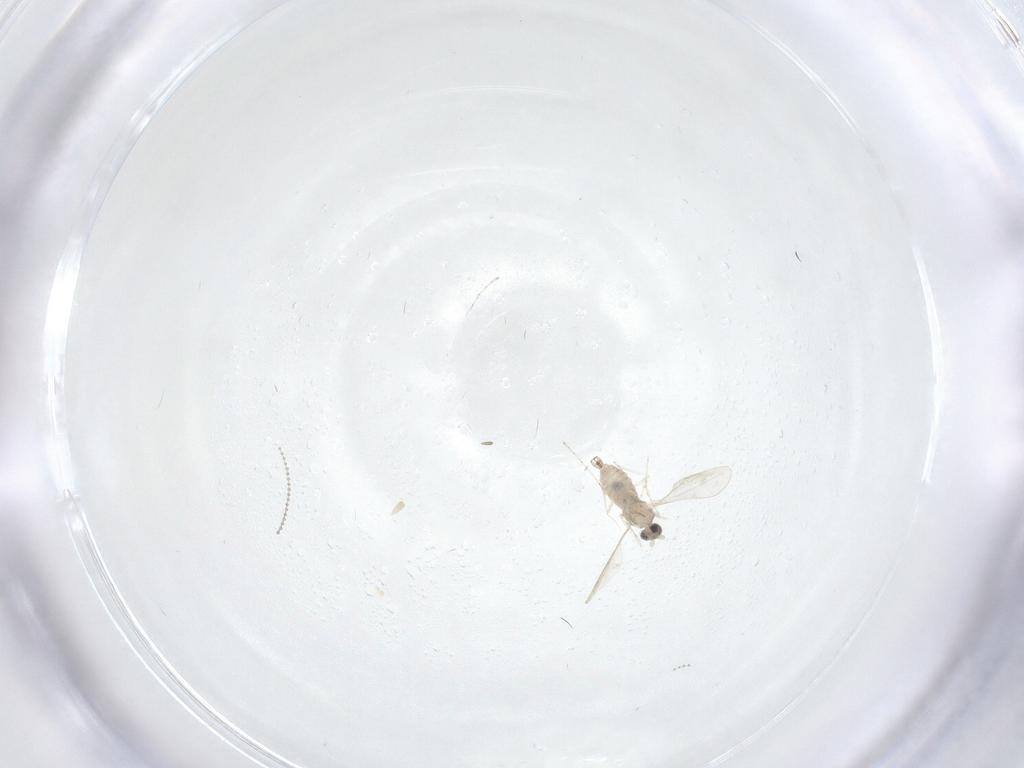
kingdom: Animalia
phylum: Arthropoda
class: Insecta
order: Diptera
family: Cecidomyiidae
